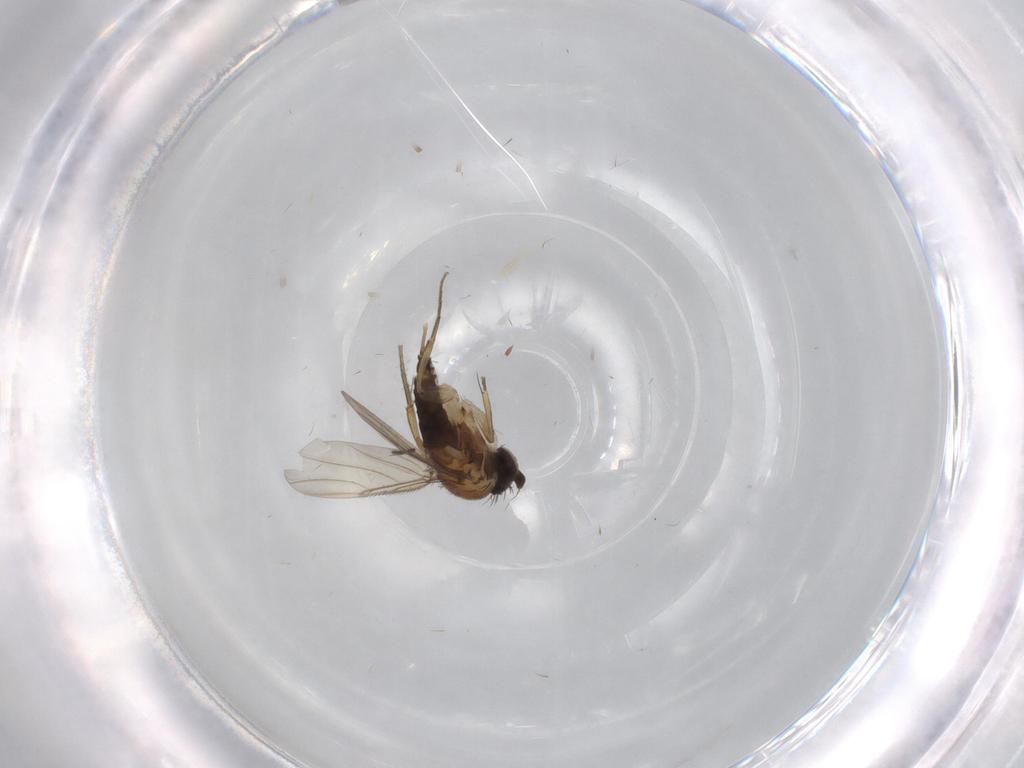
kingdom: Animalia
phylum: Arthropoda
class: Insecta
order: Diptera
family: Phoridae
